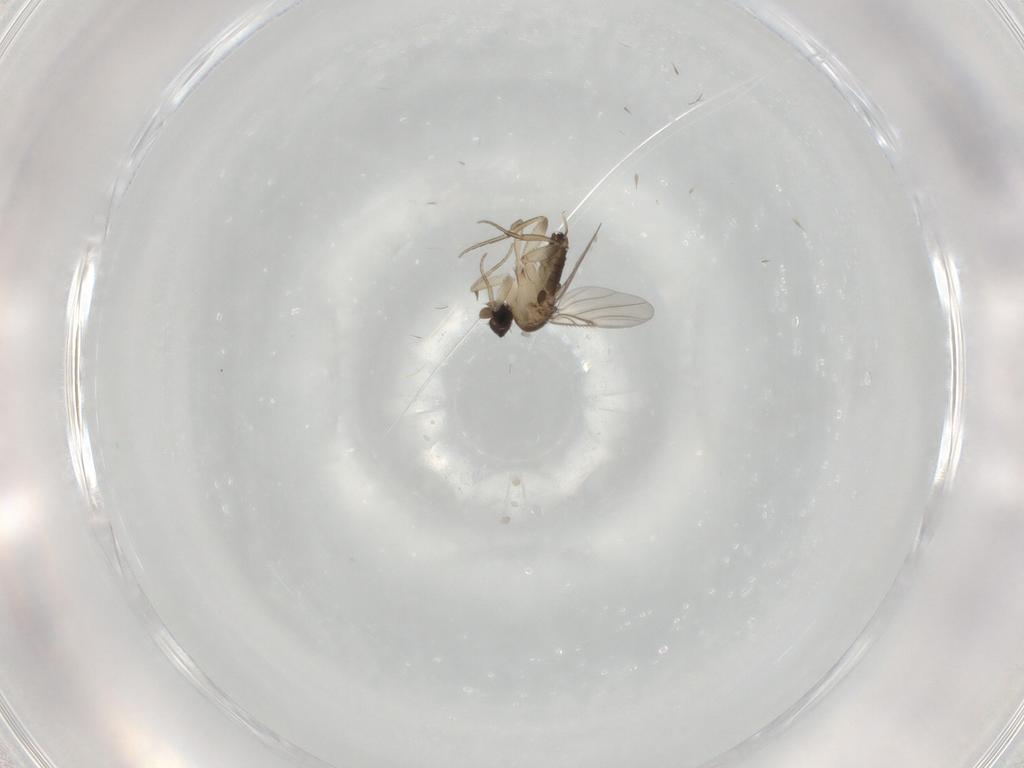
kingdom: Animalia
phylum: Arthropoda
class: Insecta
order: Diptera
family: Phoridae
